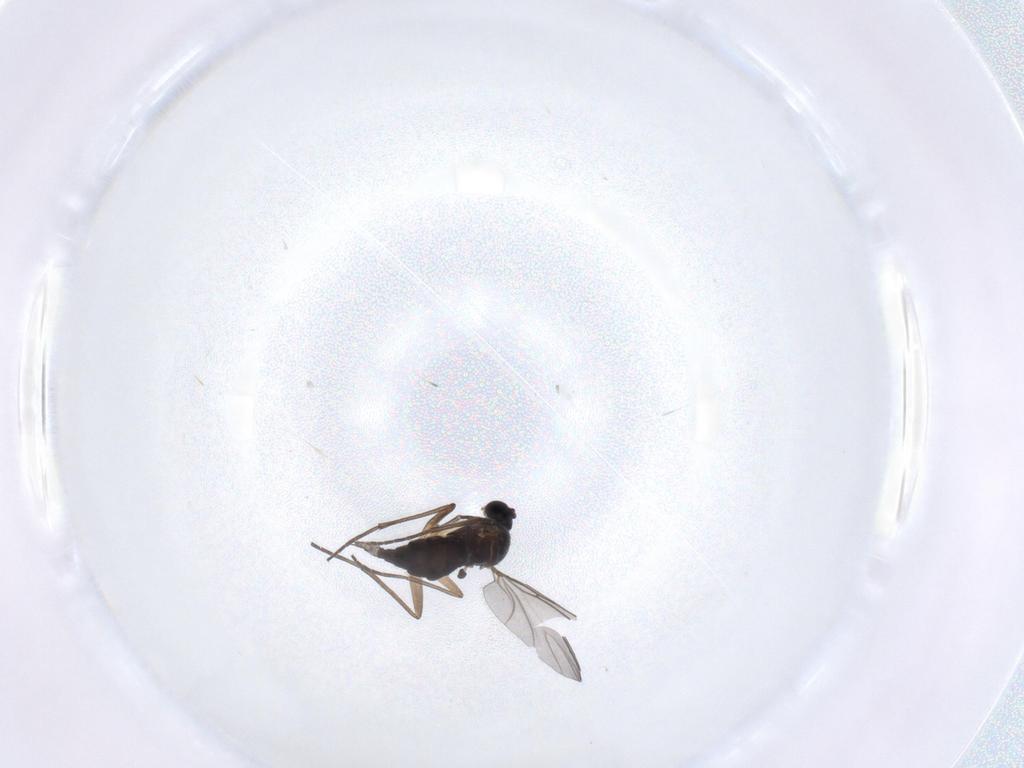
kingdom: Animalia
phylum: Arthropoda
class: Insecta
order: Diptera
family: Sciaridae
